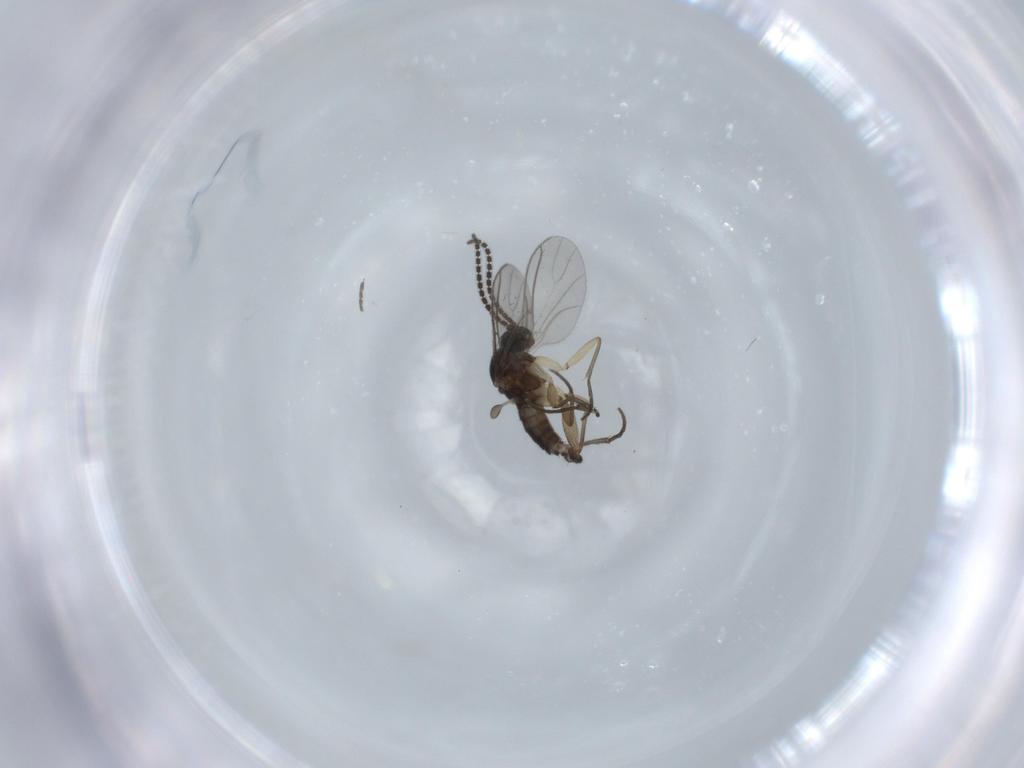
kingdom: Animalia
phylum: Arthropoda
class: Insecta
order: Diptera
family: Sciaridae
